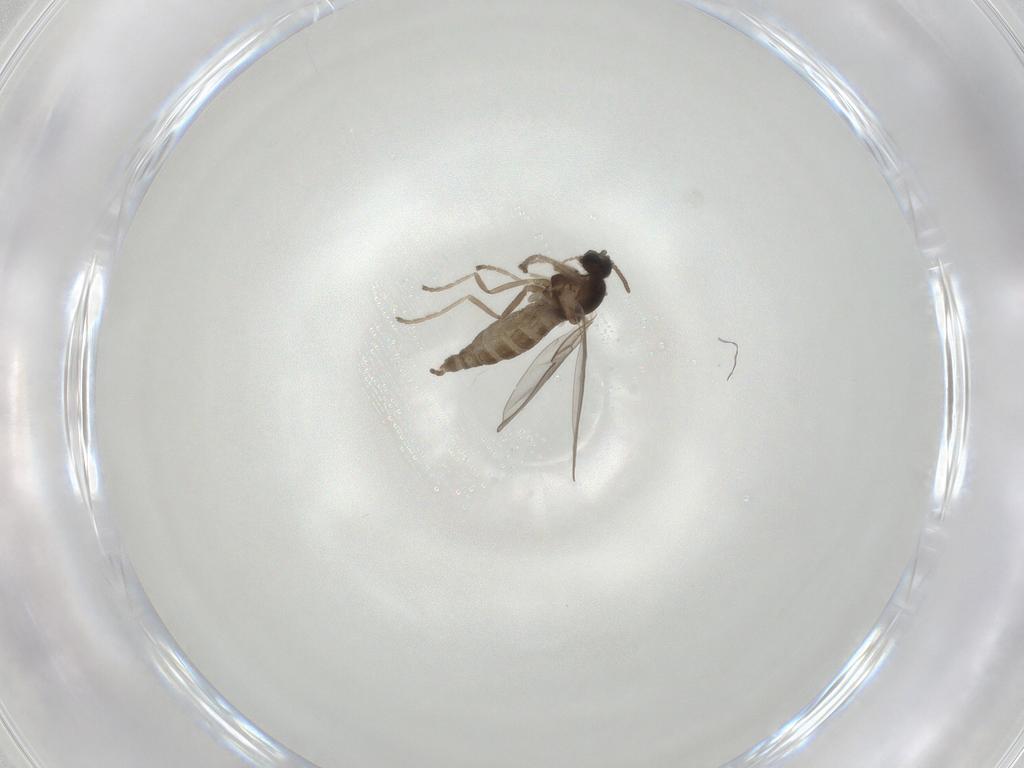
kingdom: Animalia
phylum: Arthropoda
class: Insecta
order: Diptera
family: Cecidomyiidae
